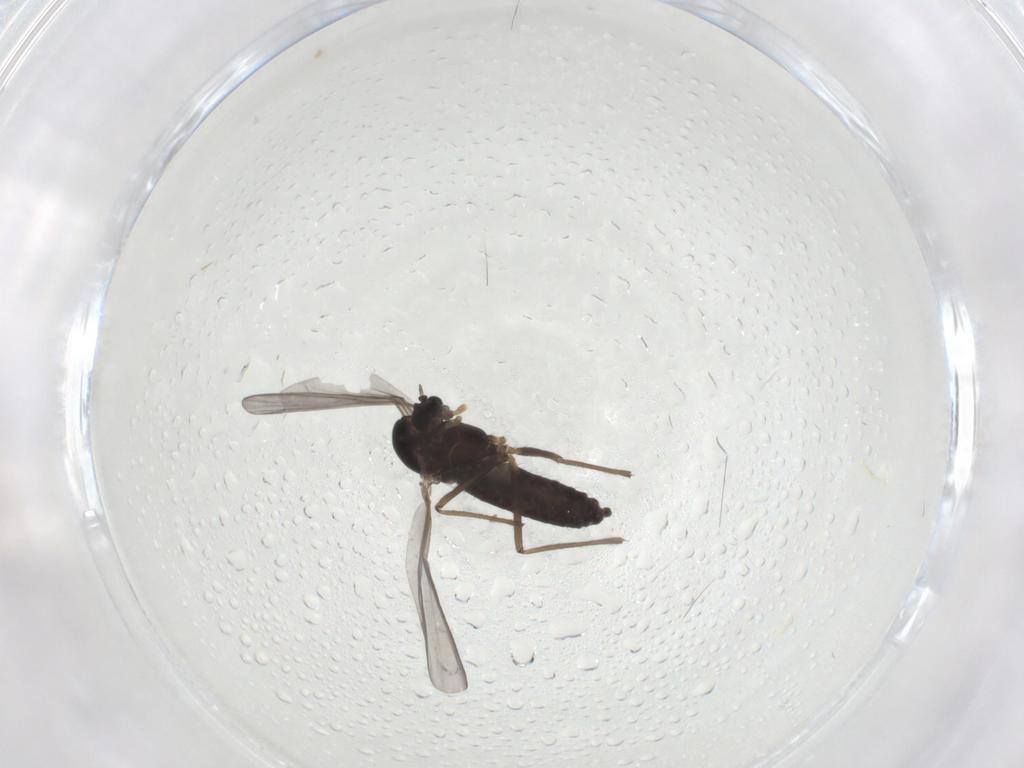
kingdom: Animalia
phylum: Arthropoda
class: Insecta
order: Diptera
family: Chironomidae
